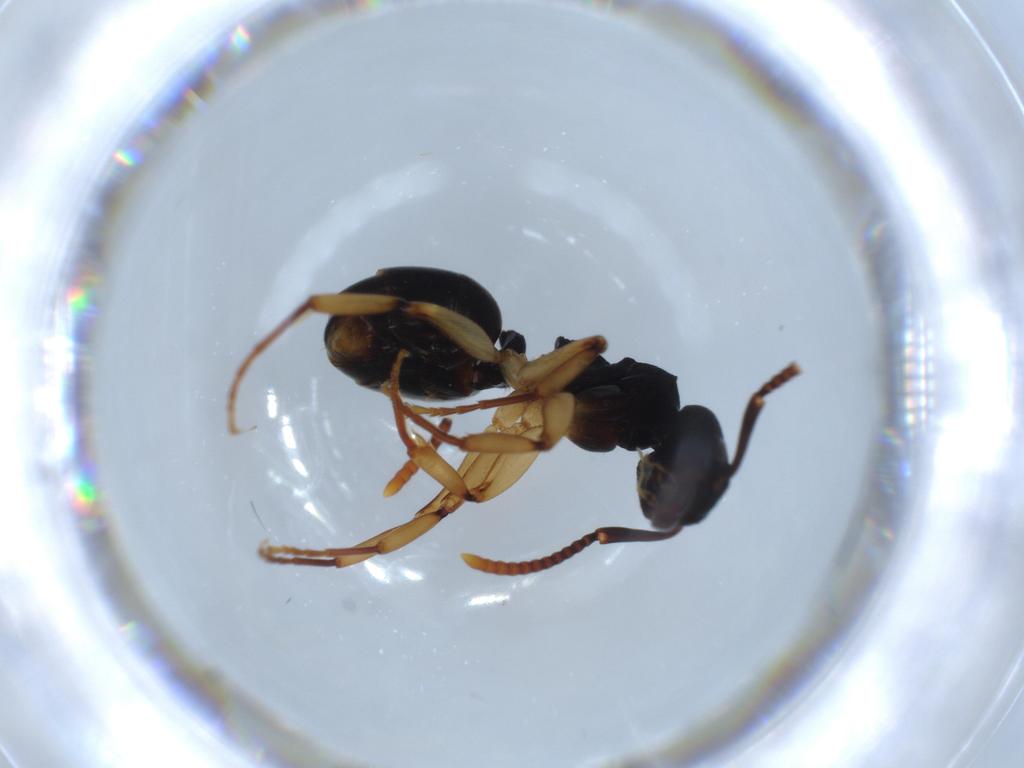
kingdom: Animalia
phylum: Arthropoda
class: Insecta
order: Hymenoptera
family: Formicidae
